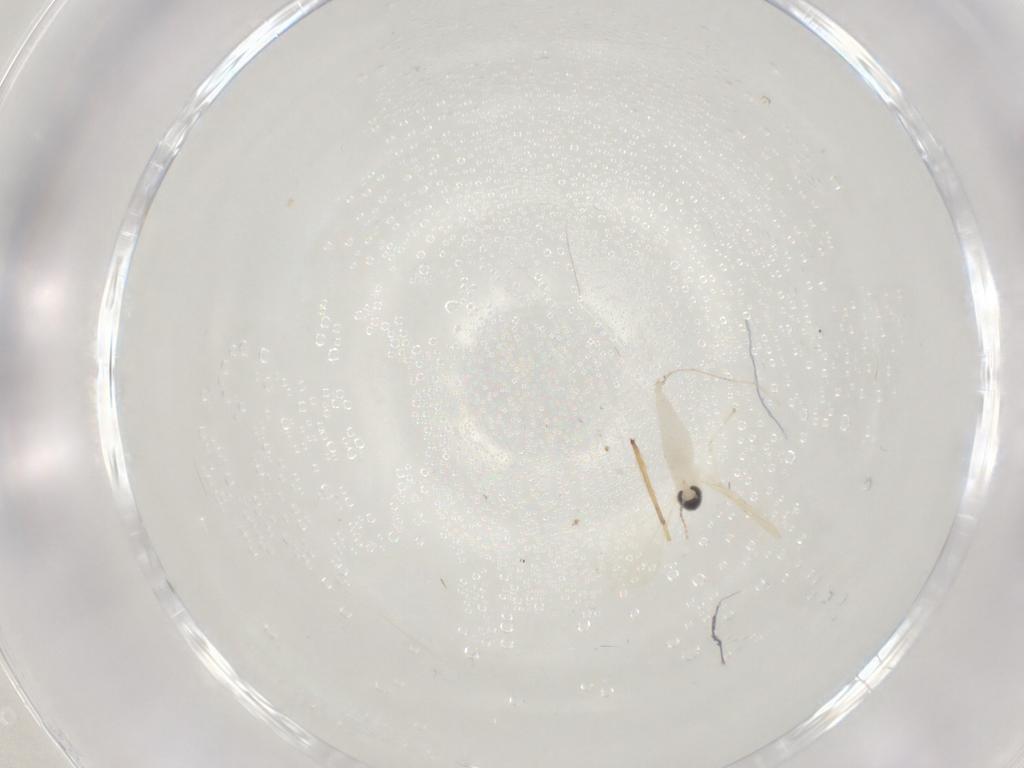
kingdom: Animalia
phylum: Arthropoda
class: Insecta
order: Diptera
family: Cecidomyiidae
